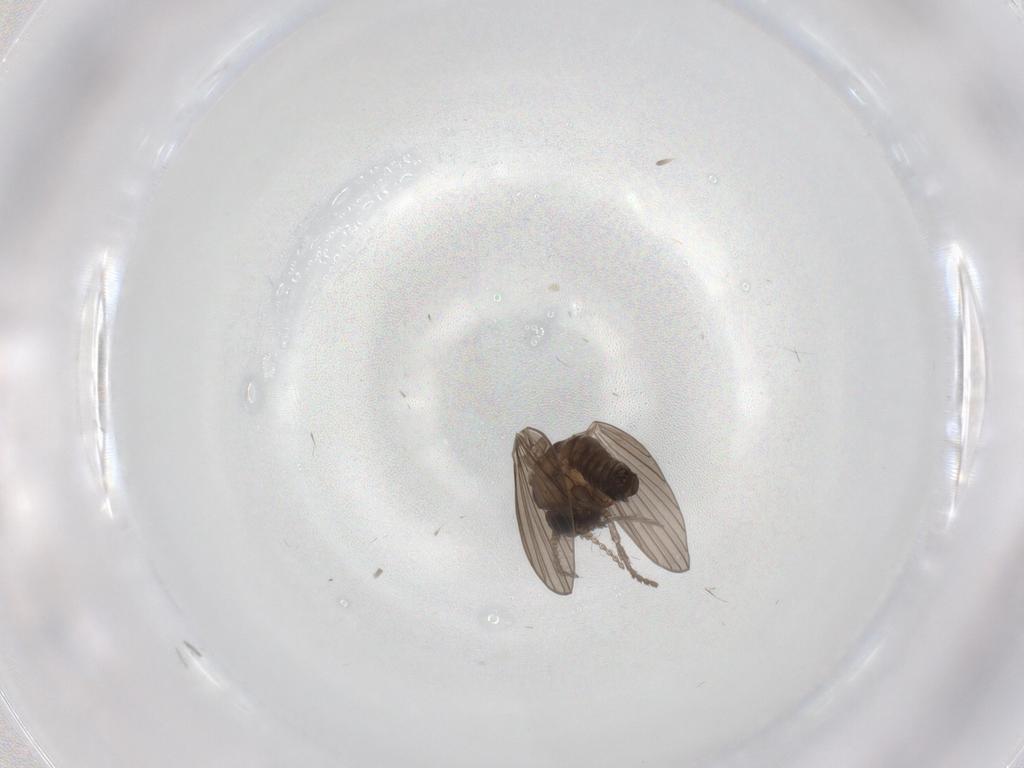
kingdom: Animalia
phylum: Arthropoda
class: Insecta
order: Diptera
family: Psychodidae
